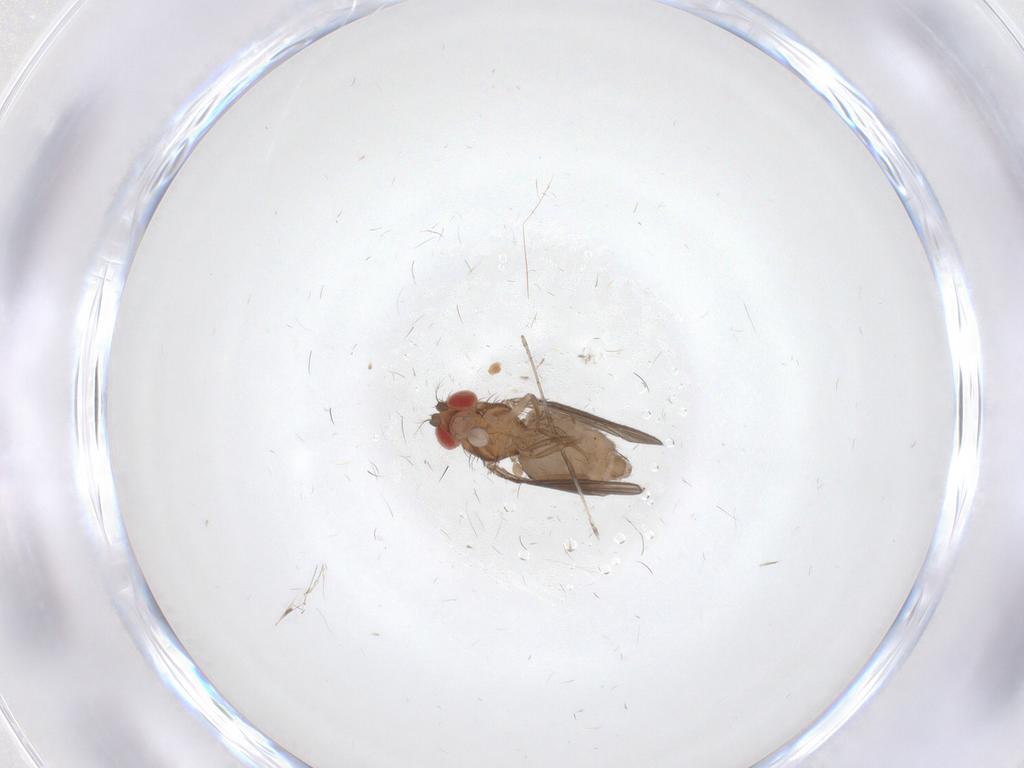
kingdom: Animalia
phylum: Arthropoda
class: Insecta
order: Diptera
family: Drosophilidae
